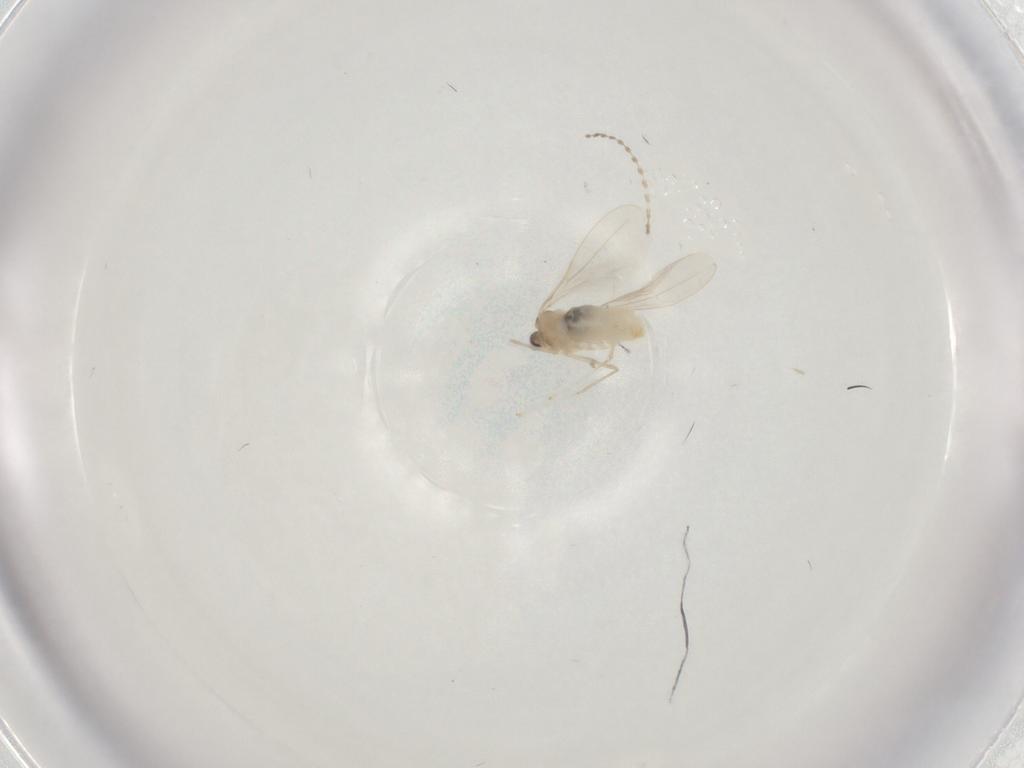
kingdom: Animalia
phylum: Arthropoda
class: Insecta
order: Diptera
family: Cecidomyiidae
